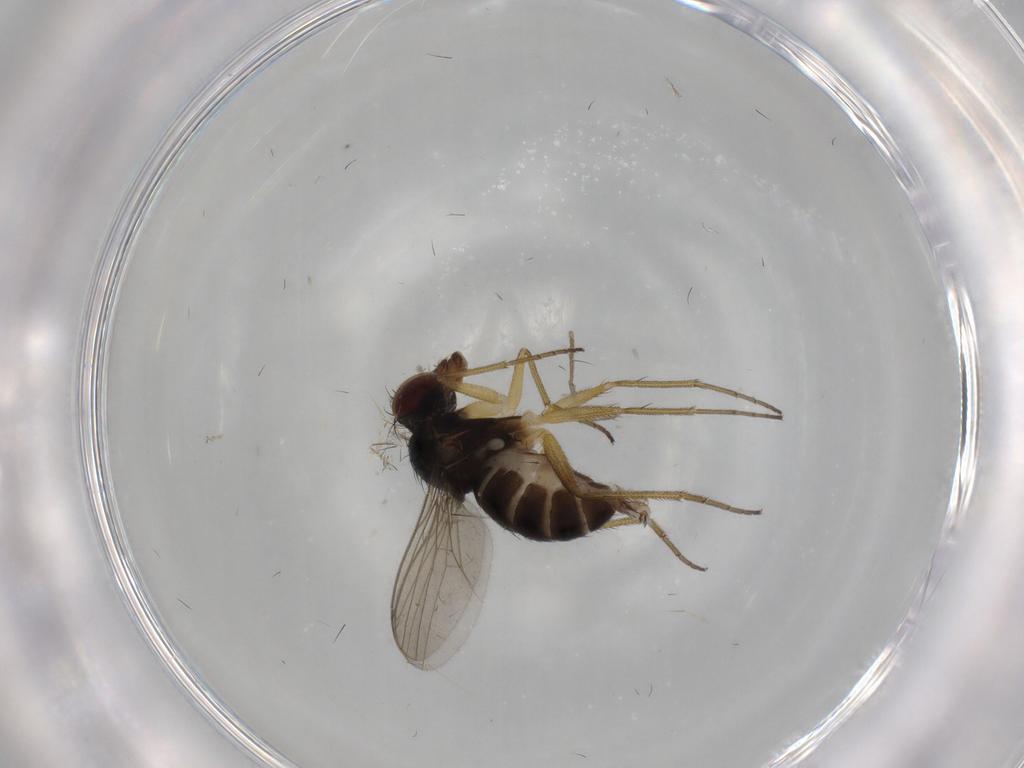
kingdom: Animalia
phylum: Arthropoda
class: Insecta
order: Diptera
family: Dolichopodidae
